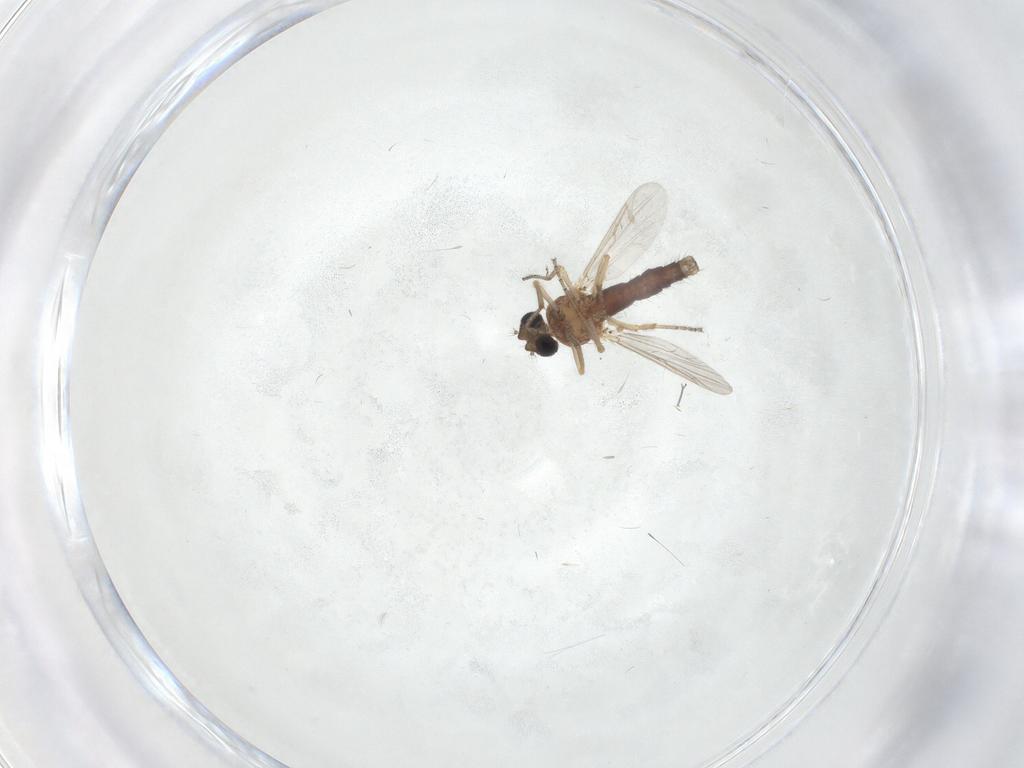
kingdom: Animalia
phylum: Arthropoda
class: Insecta
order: Diptera
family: Ceratopogonidae
